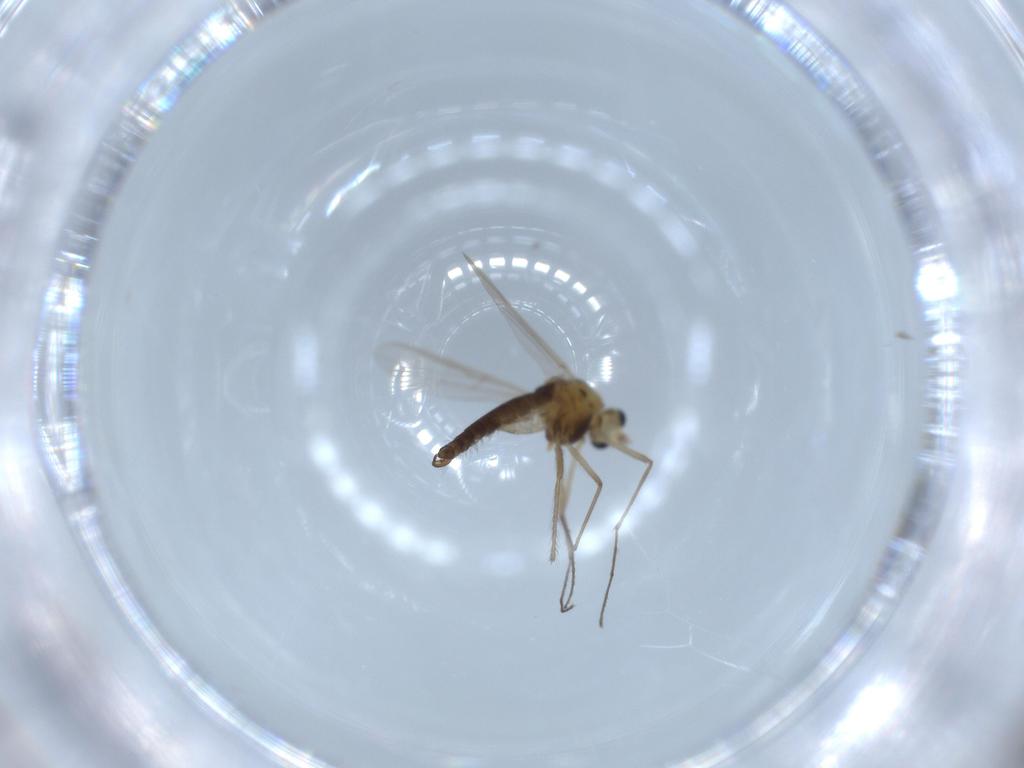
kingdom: Animalia
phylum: Arthropoda
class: Insecta
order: Diptera
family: Chironomidae
